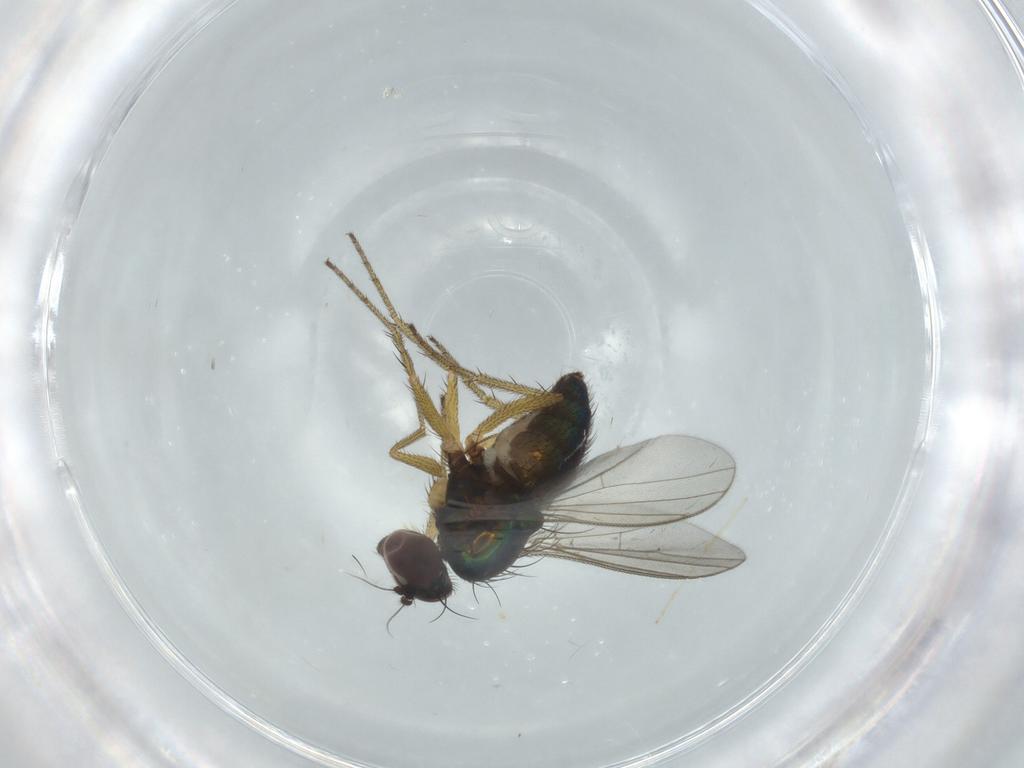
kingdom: Animalia
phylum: Arthropoda
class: Insecta
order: Diptera
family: Dolichopodidae
